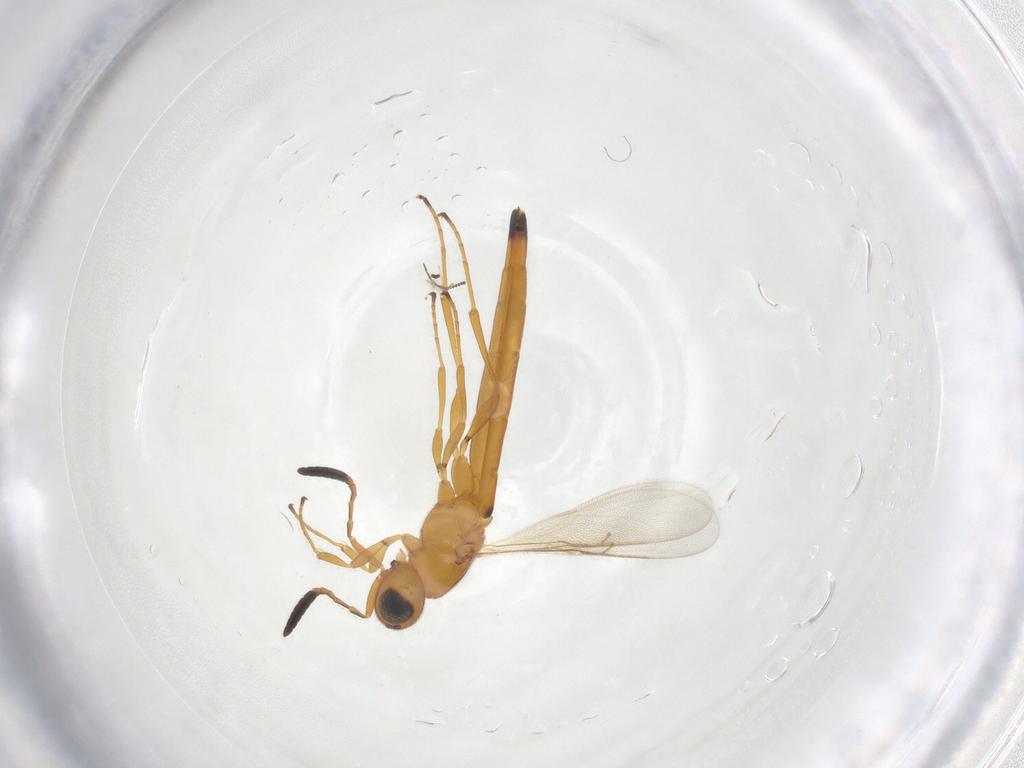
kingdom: Animalia
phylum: Arthropoda
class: Insecta
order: Hymenoptera
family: Scelionidae
